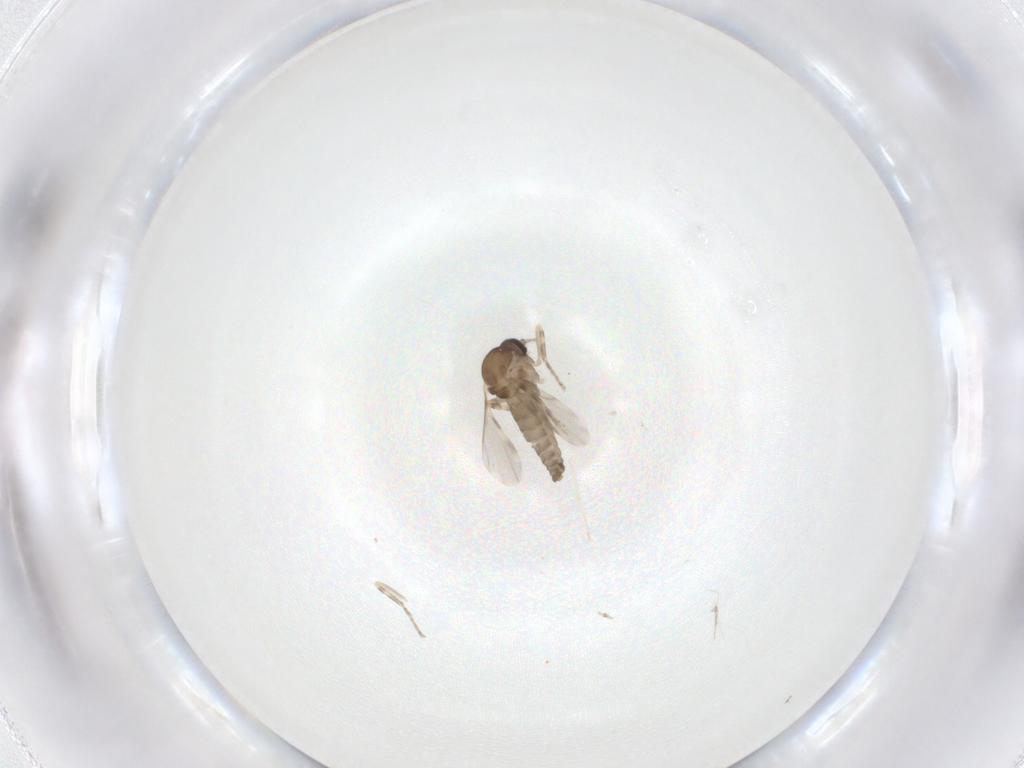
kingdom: Animalia
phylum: Arthropoda
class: Insecta
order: Diptera
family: Ceratopogonidae
